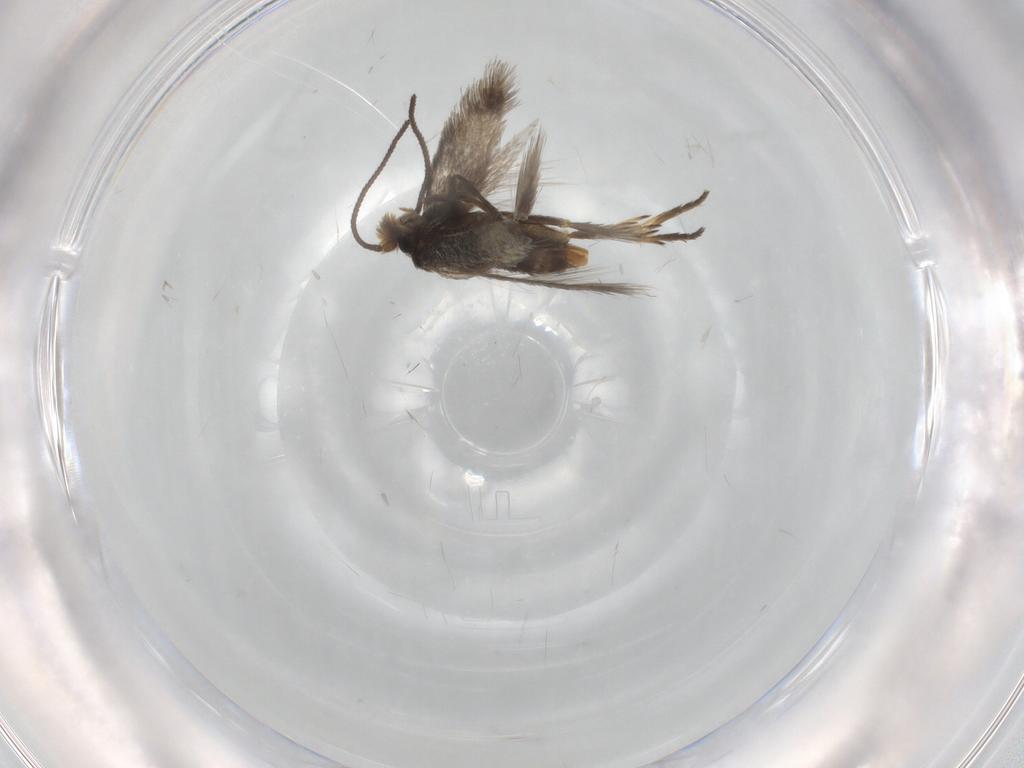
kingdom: Animalia
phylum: Arthropoda
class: Insecta
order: Lepidoptera
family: Nepticulidae
